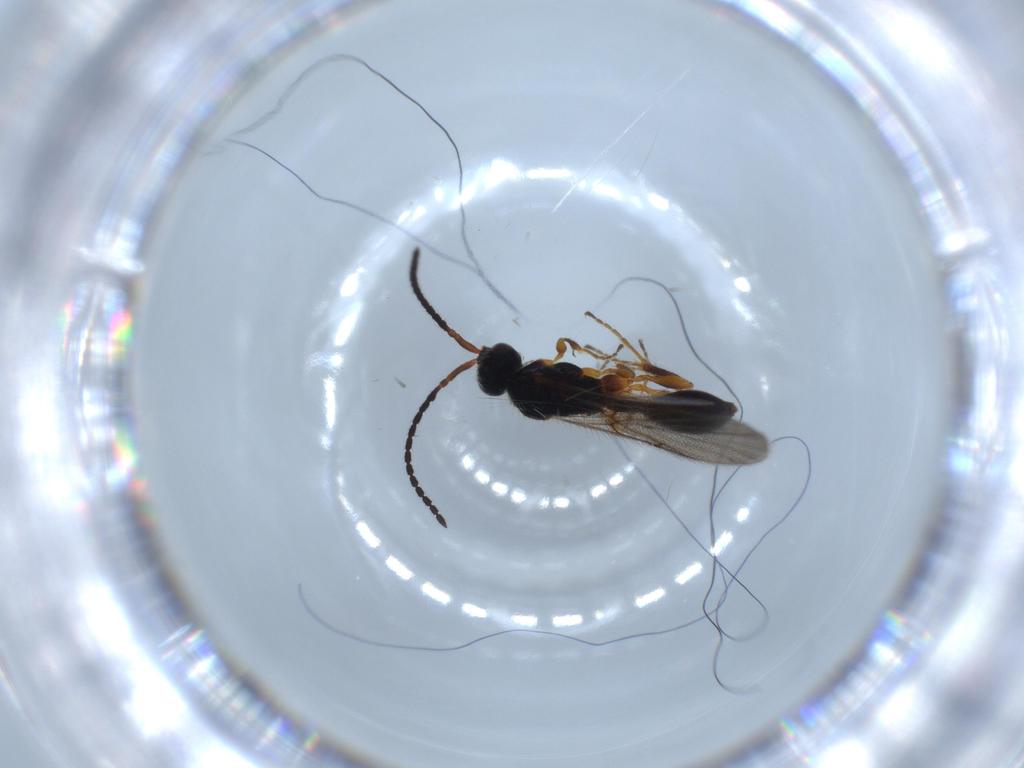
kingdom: Animalia
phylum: Arthropoda
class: Insecta
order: Hymenoptera
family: Diapriidae
